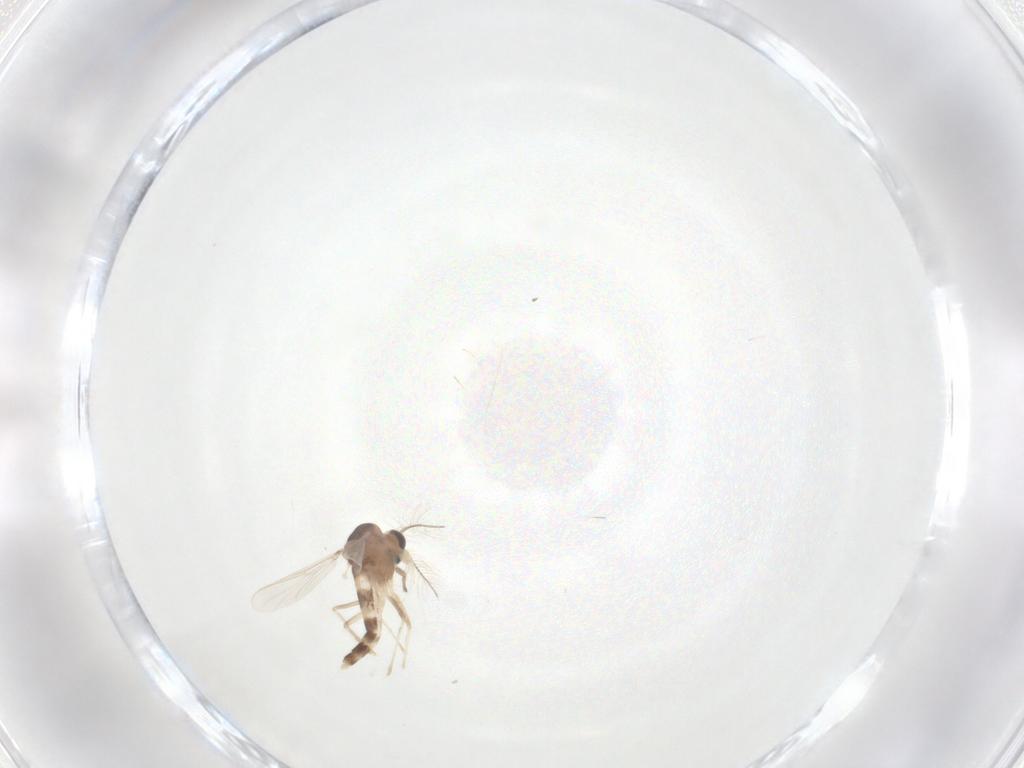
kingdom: Animalia
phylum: Arthropoda
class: Insecta
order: Diptera
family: Chironomidae
